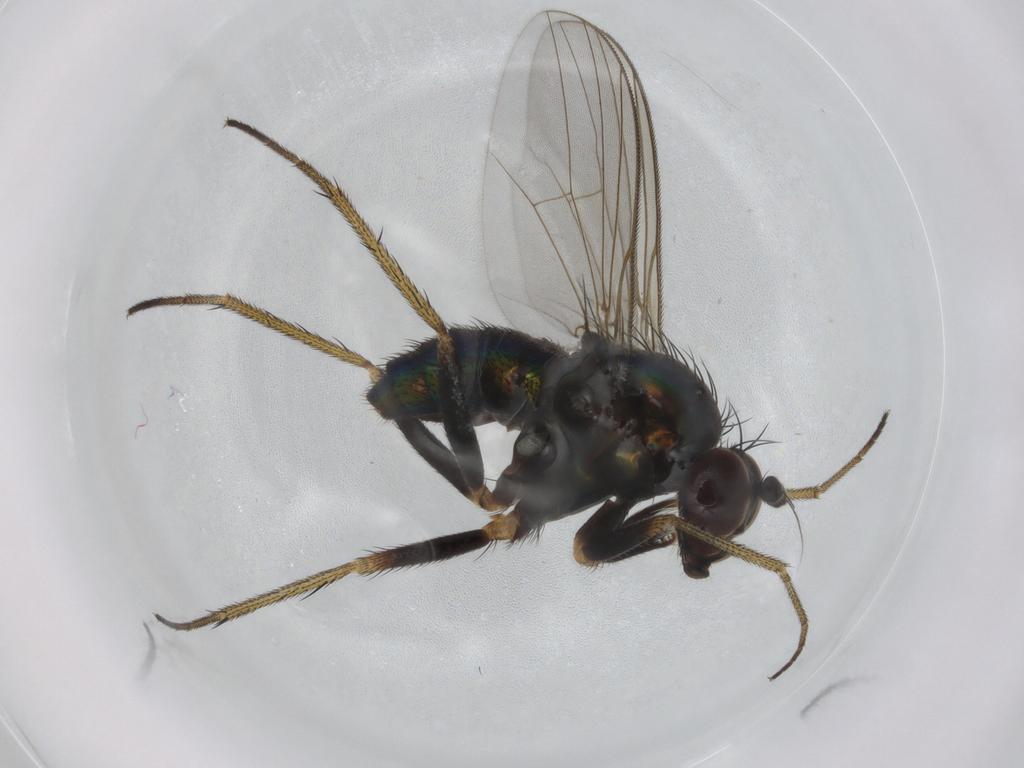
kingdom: Animalia
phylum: Arthropoda
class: Insecta
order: Diptera
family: Dolichopodidae
